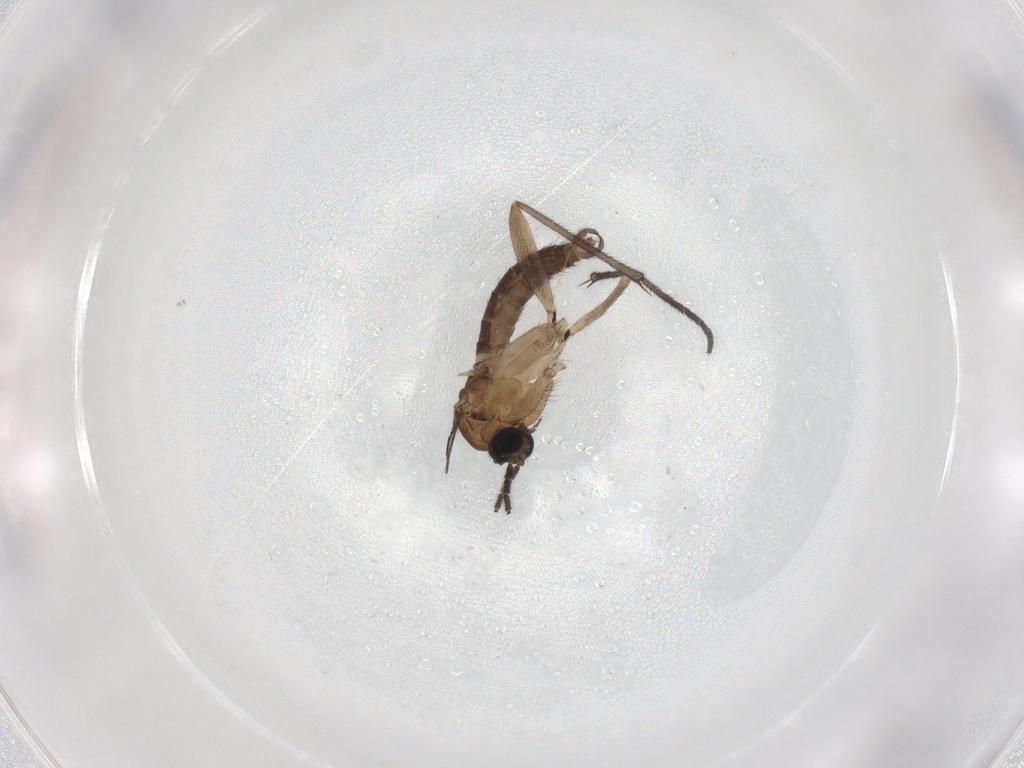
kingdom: Animalia
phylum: Arthropoda
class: Insecta
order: Diptera
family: Sciaridae
